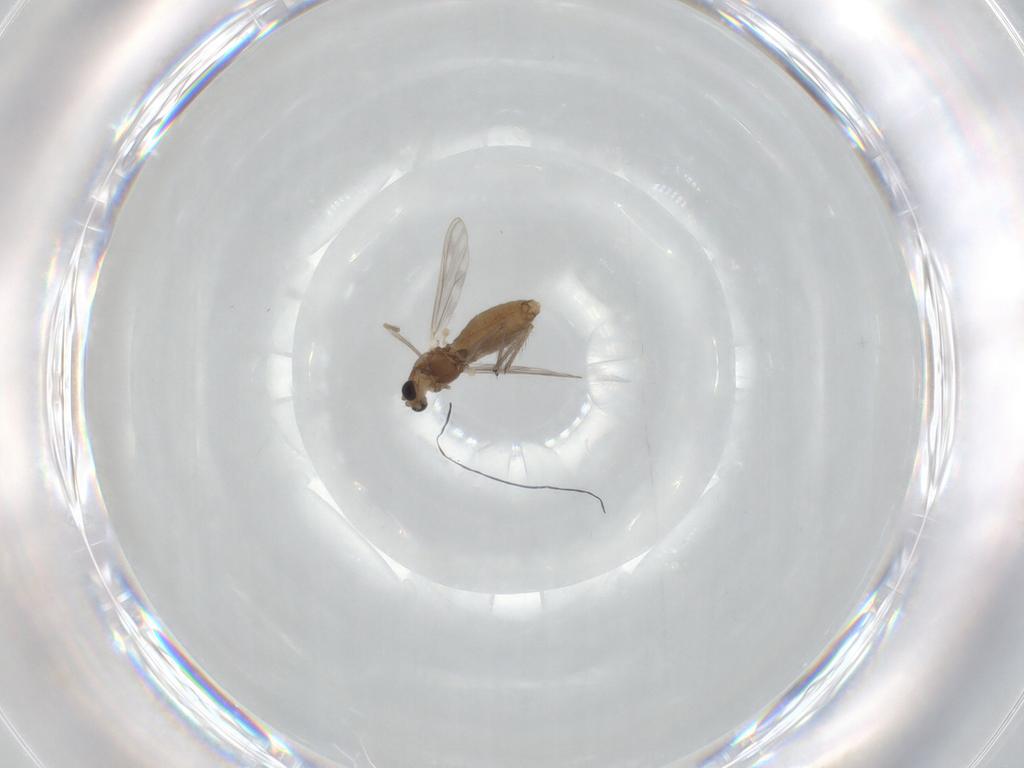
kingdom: Animalia
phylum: Arthropoda
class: Insecta
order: Diptera
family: Chironomidae
